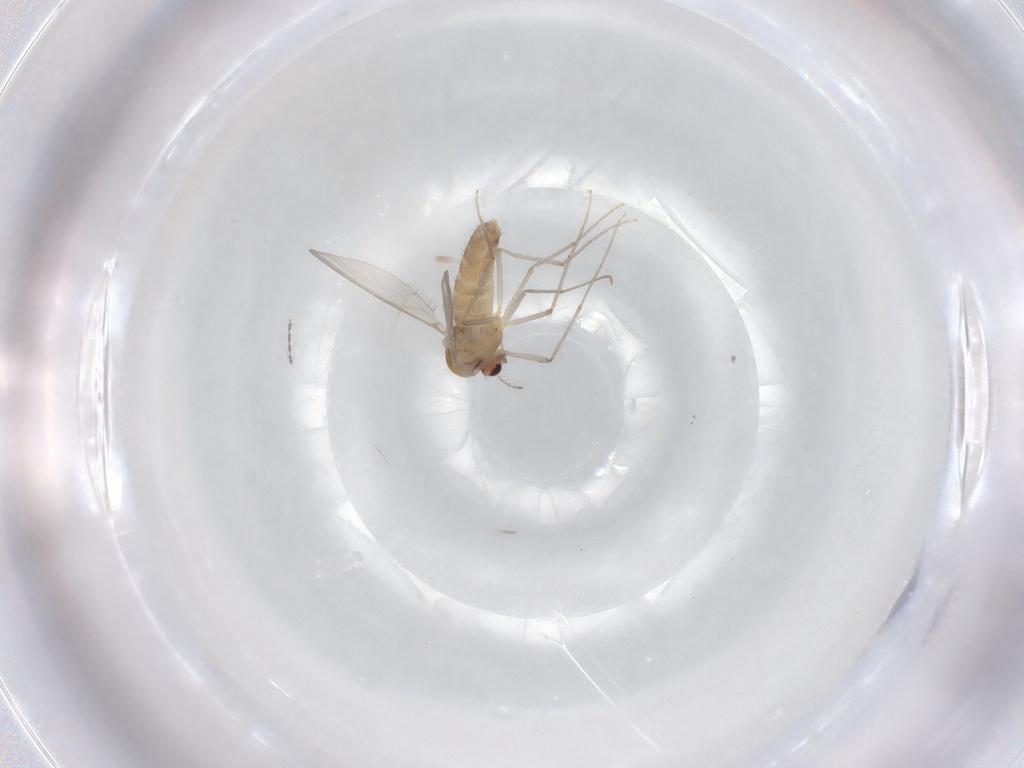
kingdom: Animalia
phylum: Arthropoda
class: Insecta
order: Diptera
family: Chironomidae
